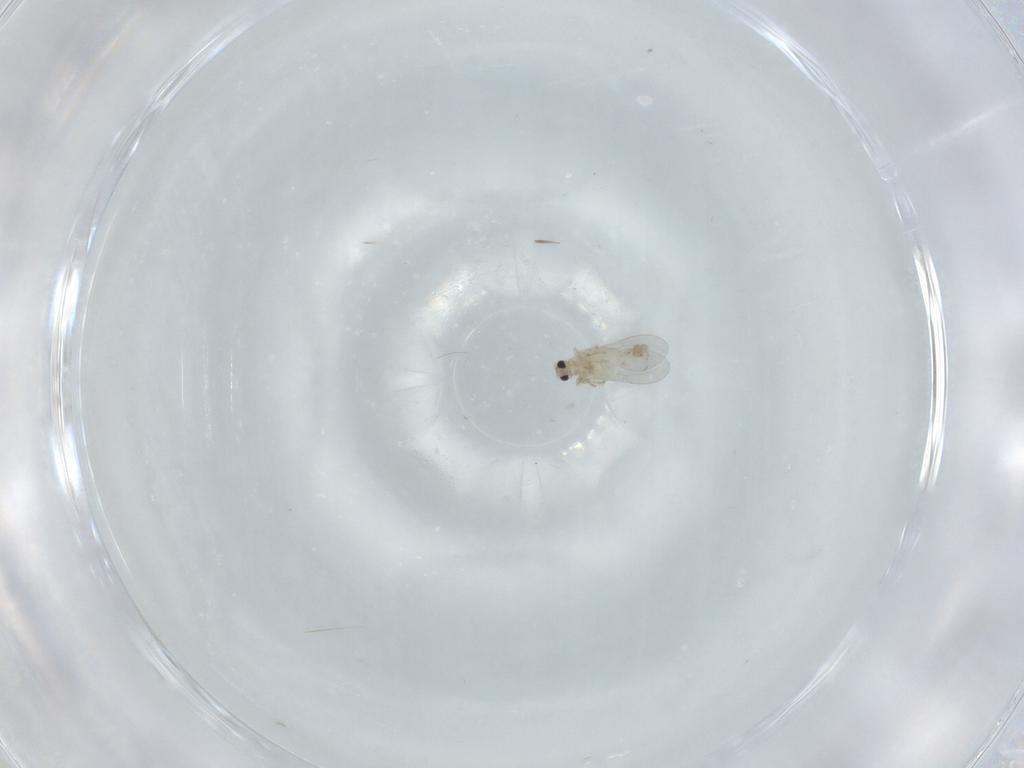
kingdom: Animalia
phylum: Arthropoda
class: Insecta
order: Diptera
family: Cecidomyiidae
